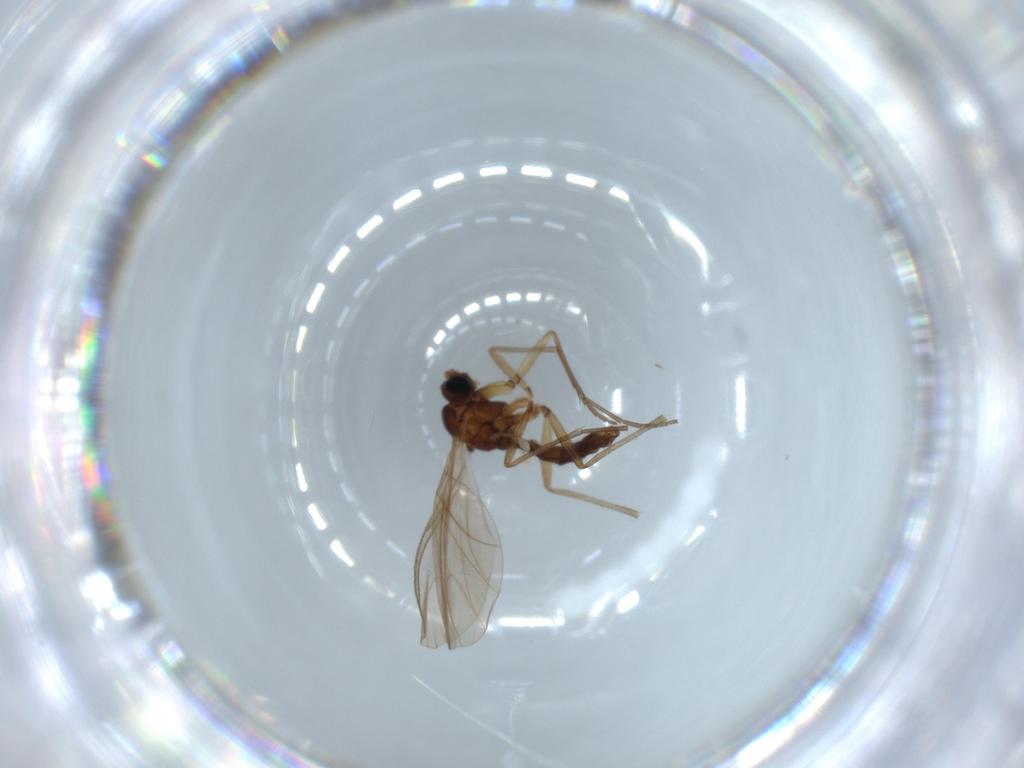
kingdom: Animalia
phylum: Arthropoda
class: Insecta
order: Diptera
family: Sciaridae
